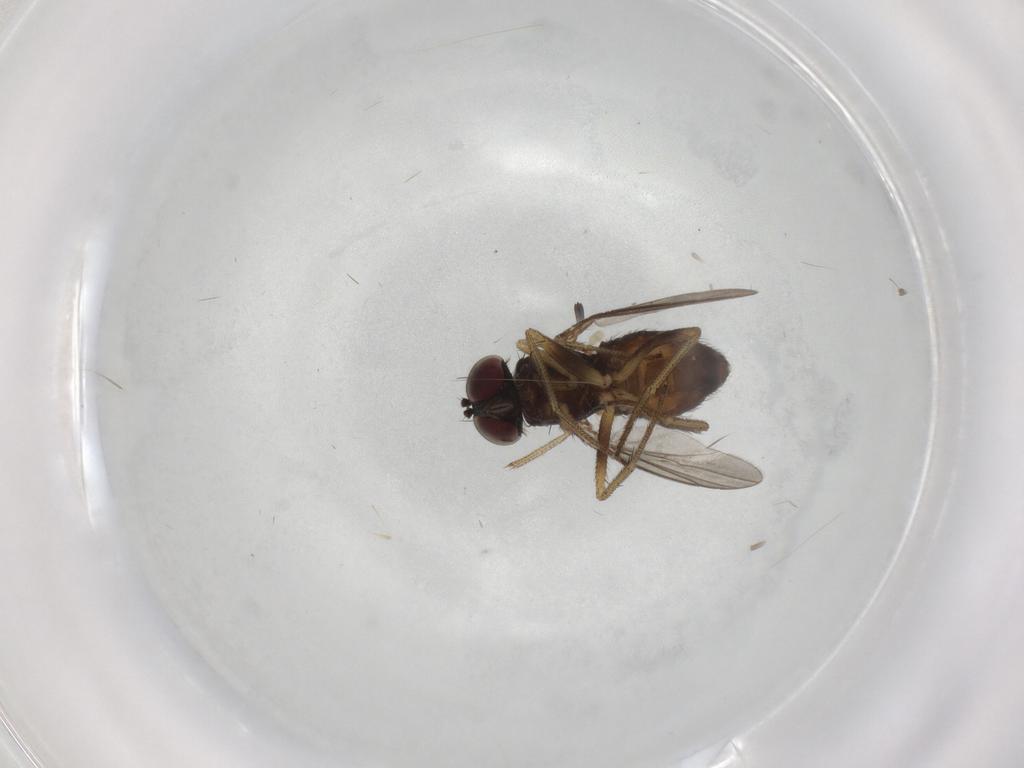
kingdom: Animalia
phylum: Arthropoda
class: Insecta
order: Diptera
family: Dolichopodidae
